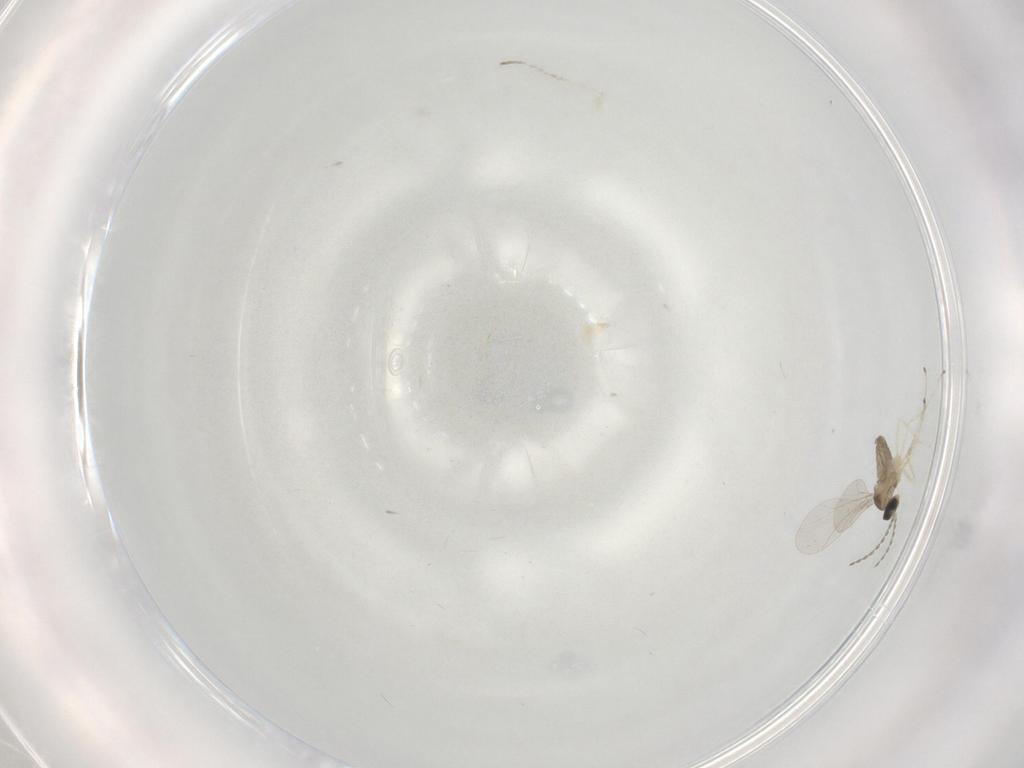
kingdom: Animalia
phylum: Arthropoda
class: Insecta
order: Diptera
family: Cecidomyiidae
